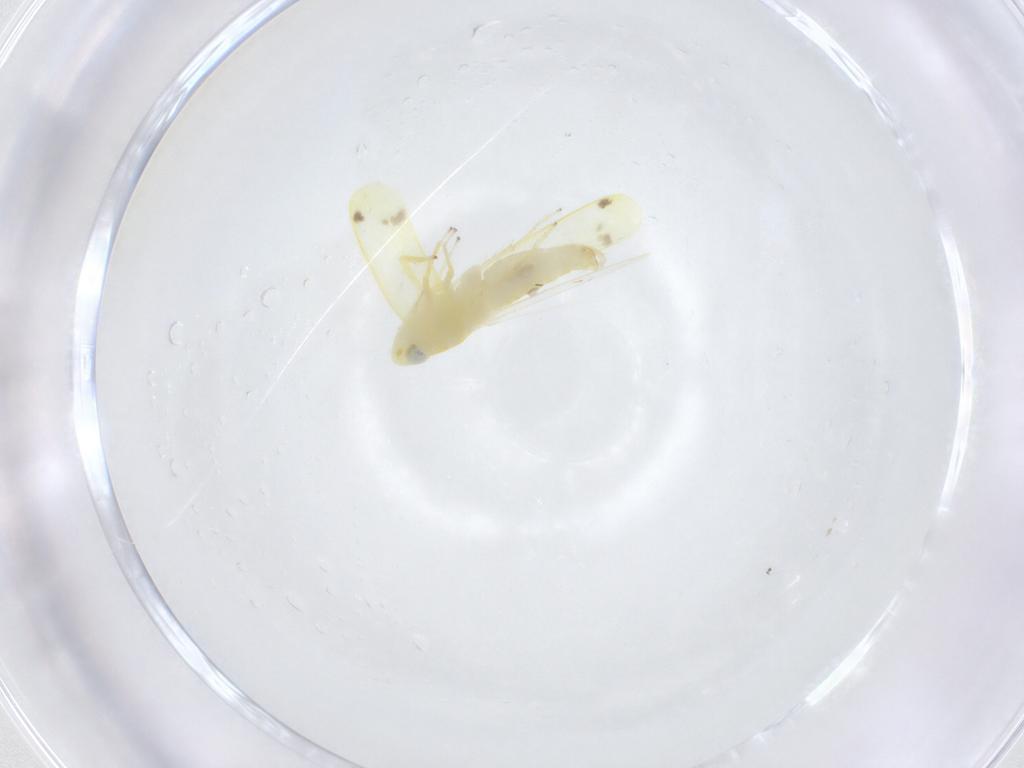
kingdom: Animalia
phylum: Arthropoda
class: Insecta
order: Hemiptera
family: Cicadellidae
